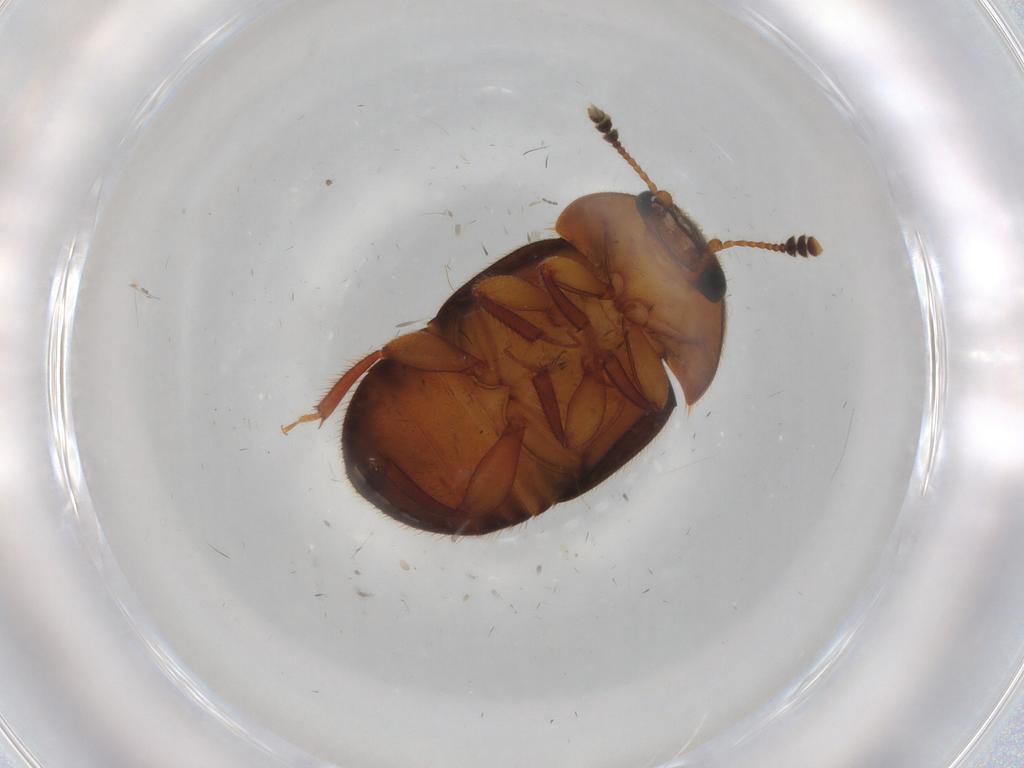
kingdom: Animalia
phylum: Arthropoda
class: Insecta
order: Coleoptera
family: Nitidulidae
